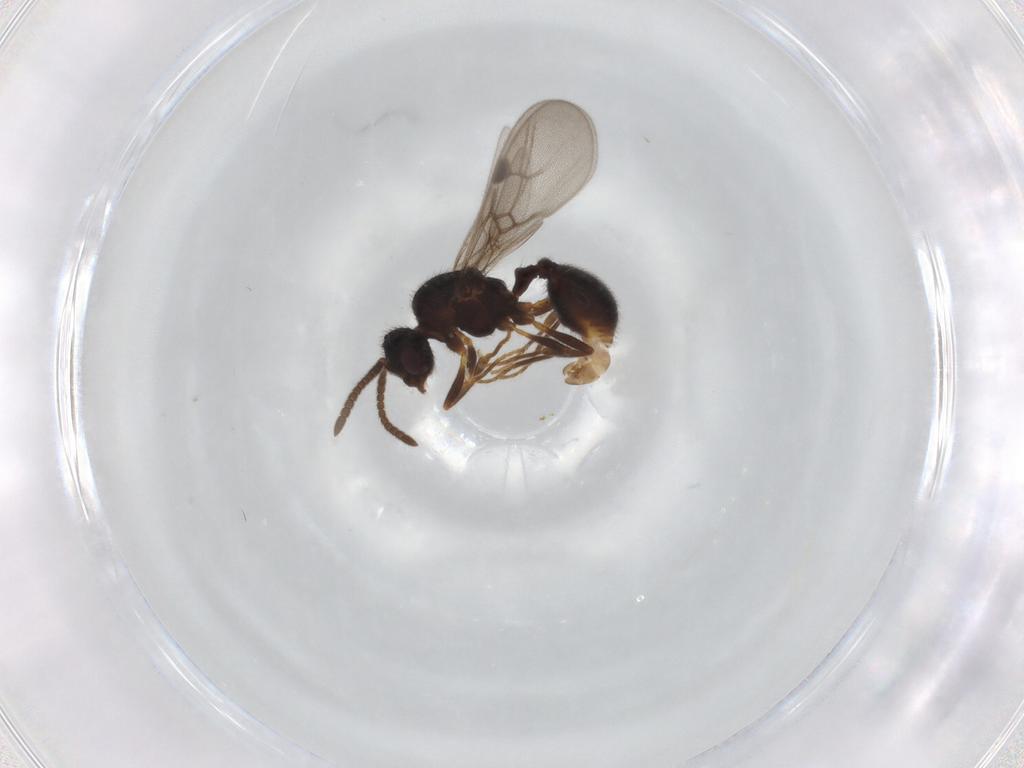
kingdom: Animalia
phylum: Arthropoda
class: Insecta
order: Hymenoptera
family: Formicidae
